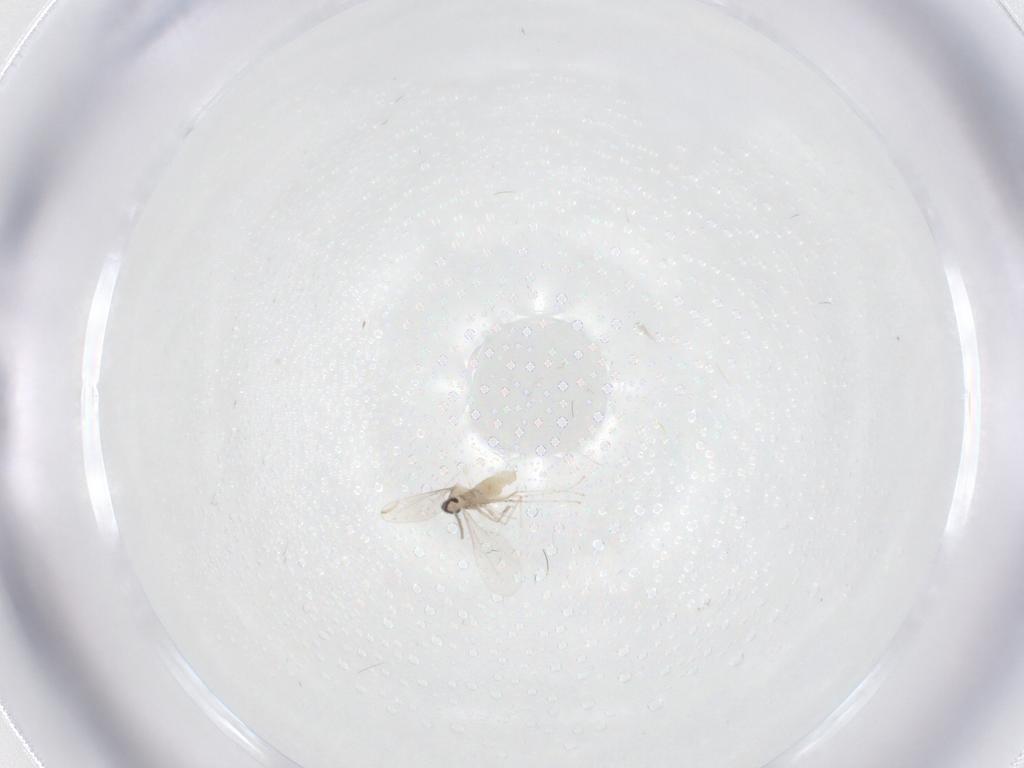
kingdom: Animalia
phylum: Arthropoda
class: Insecta
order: Diptera
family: Cecidomyiidae
